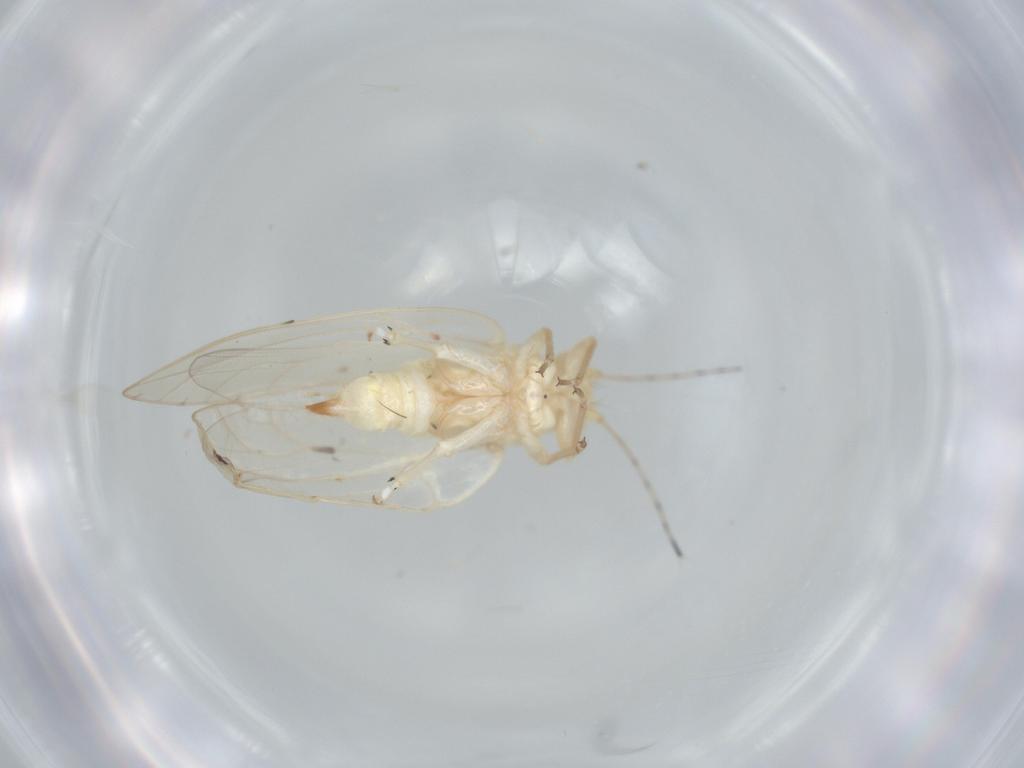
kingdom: Animalia
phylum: Arthropoda
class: Insecta
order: Hemiptera
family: Triozidae
